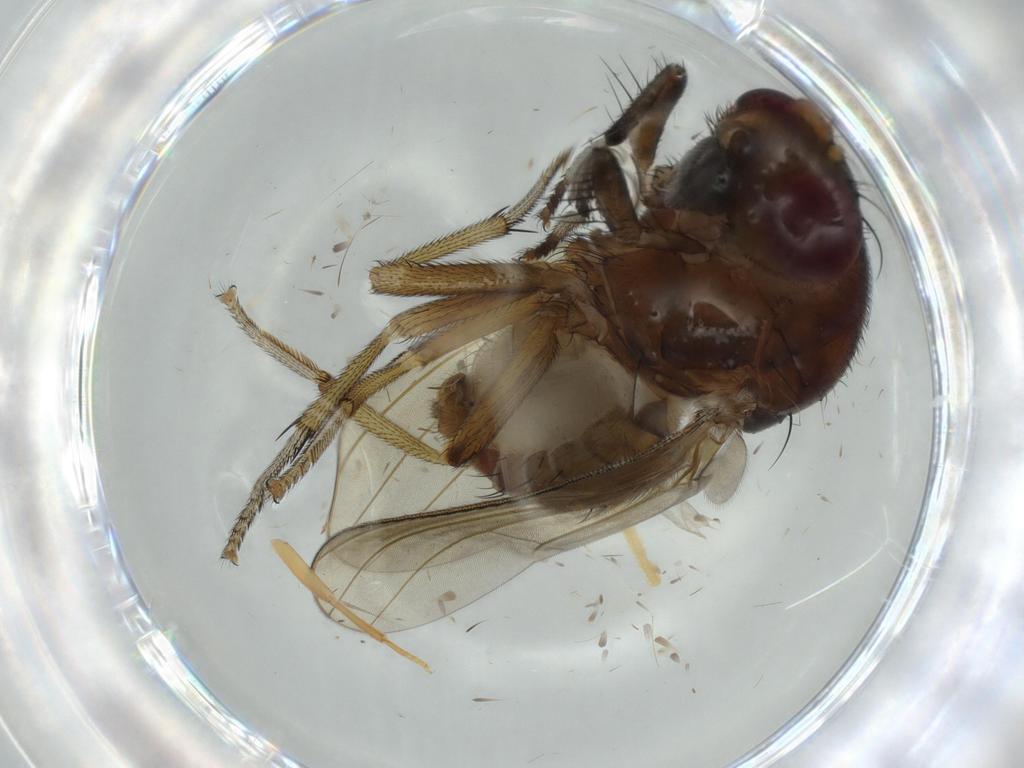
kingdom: Animalia
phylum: Arthropoda
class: Insecta
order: Diptera
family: Phoridae
